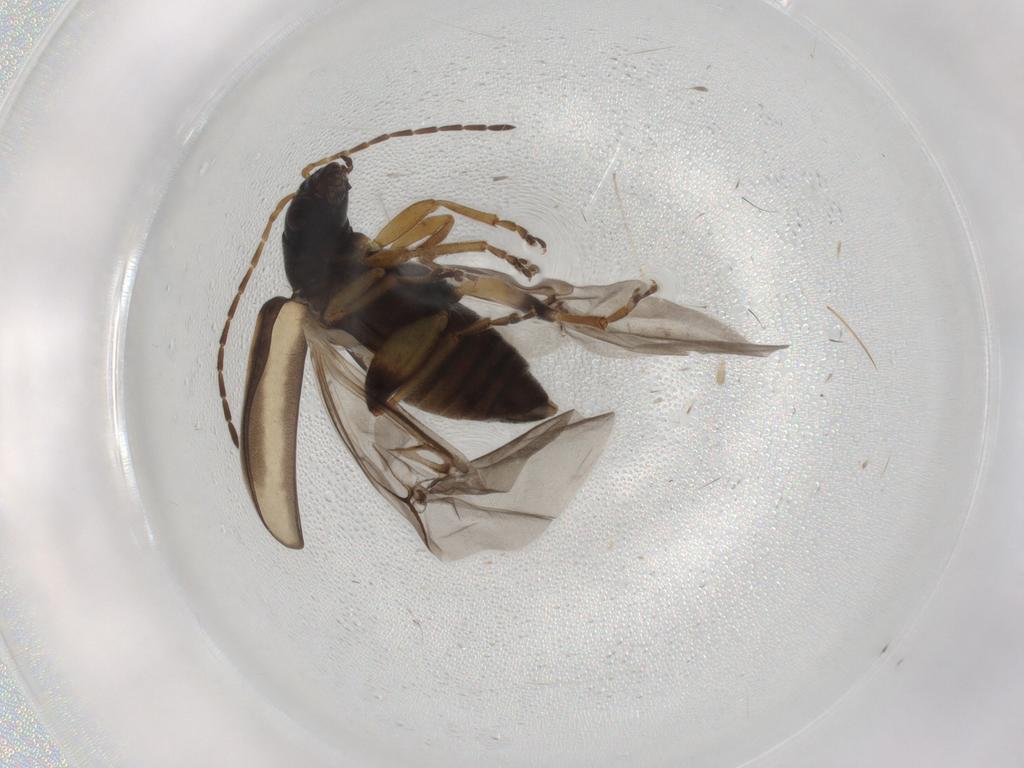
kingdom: Animalia
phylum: Arthropoda
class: Insecta
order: Coleoptera
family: Chrysomelidae
